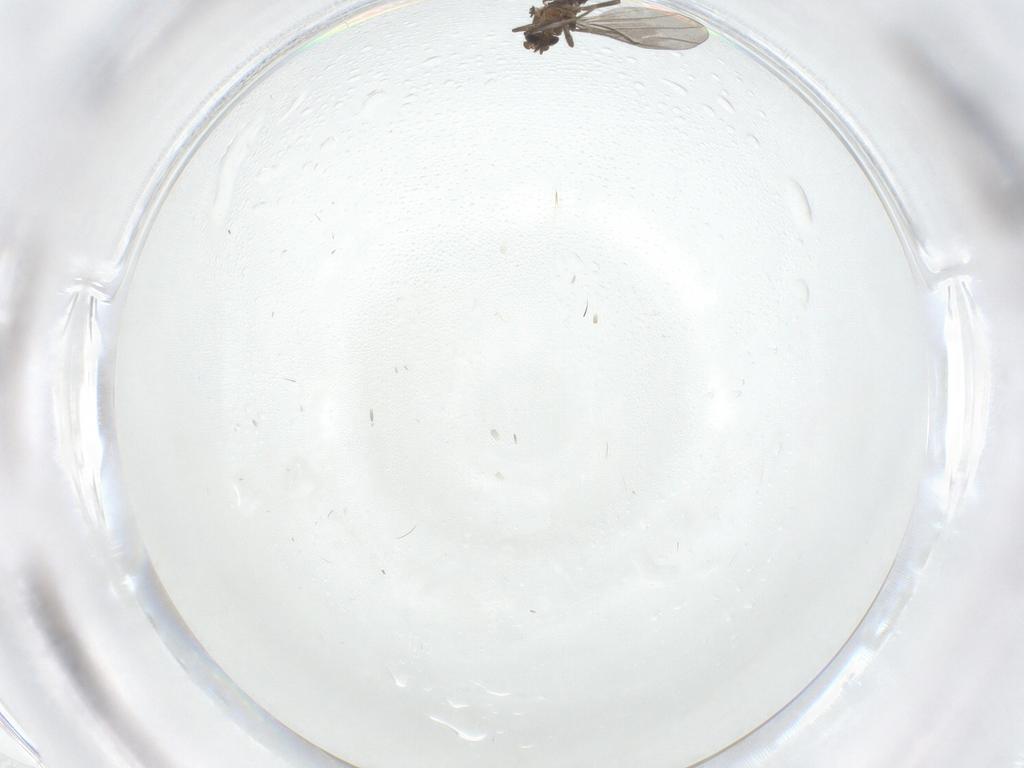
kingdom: Animalia
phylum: Arthropoda
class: Insecta
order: Diptera
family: Phoridae
